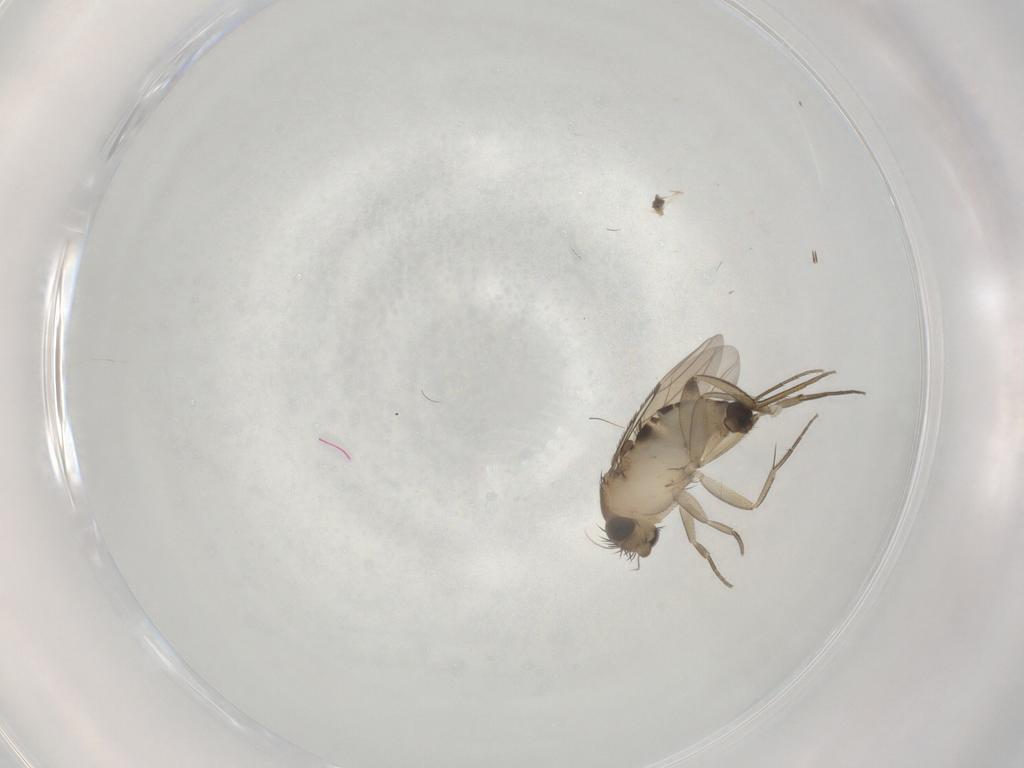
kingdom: Animalia
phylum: Arthropoda
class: Insecta
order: Diptera
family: Phoridae
